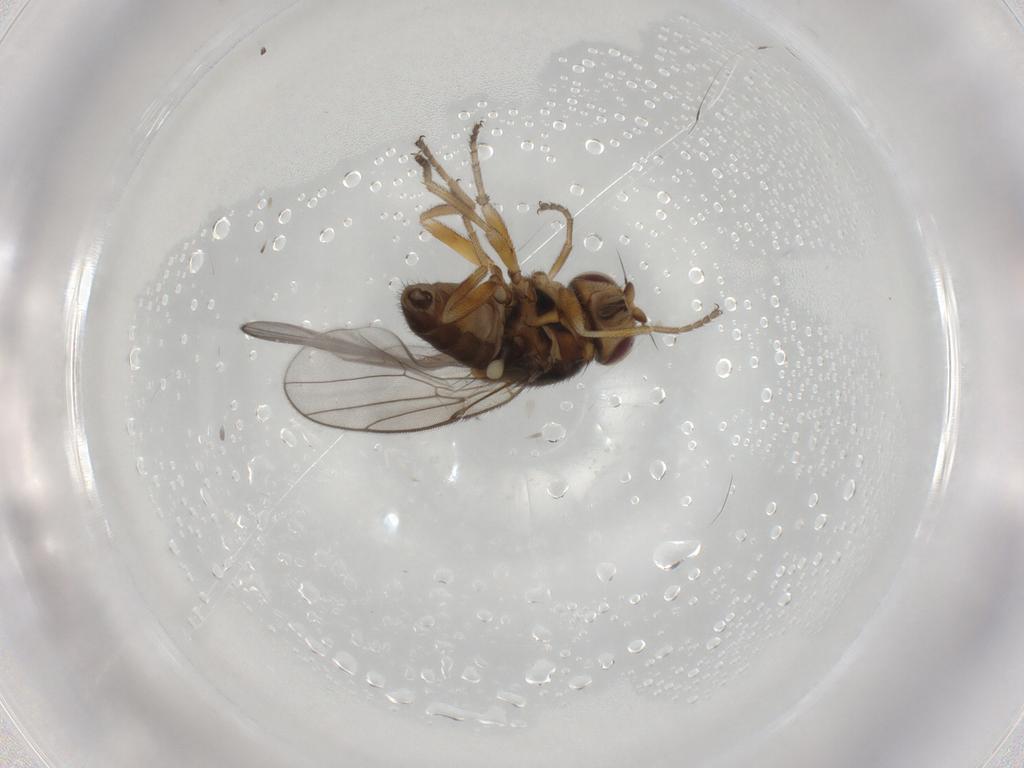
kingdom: Animalia
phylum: Arthropoda
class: Insecta
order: Diptera
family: Chloropidae
